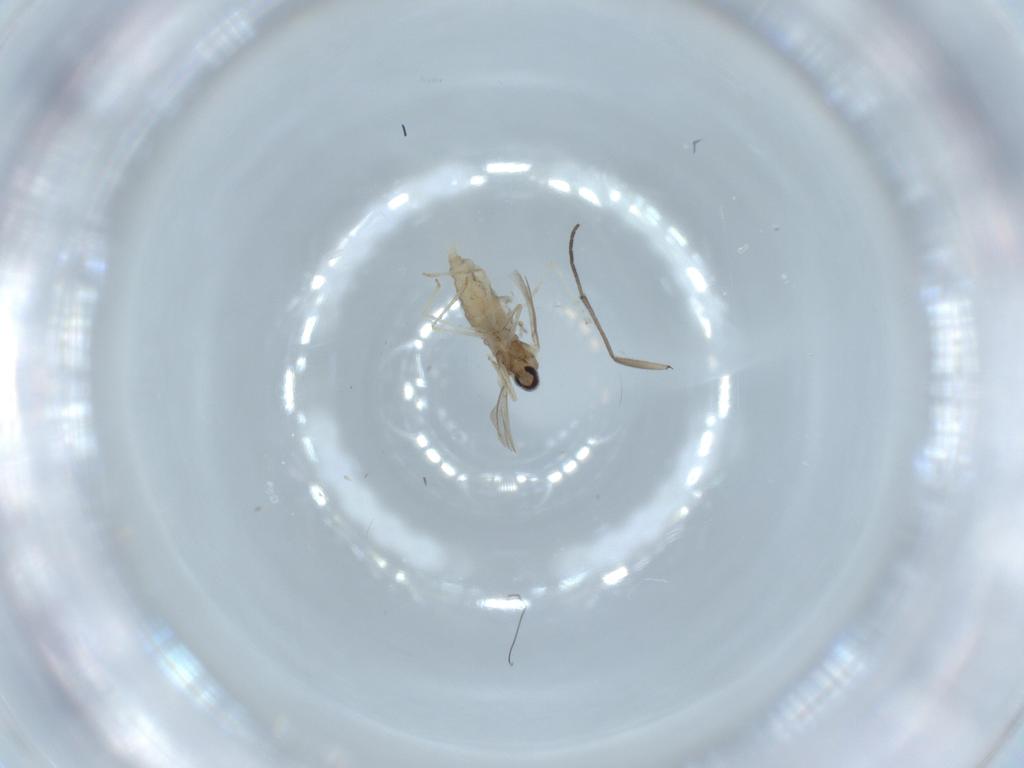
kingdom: Animalia
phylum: Arthropoda
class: Insecta
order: Diptera
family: Cecidomyiidae
